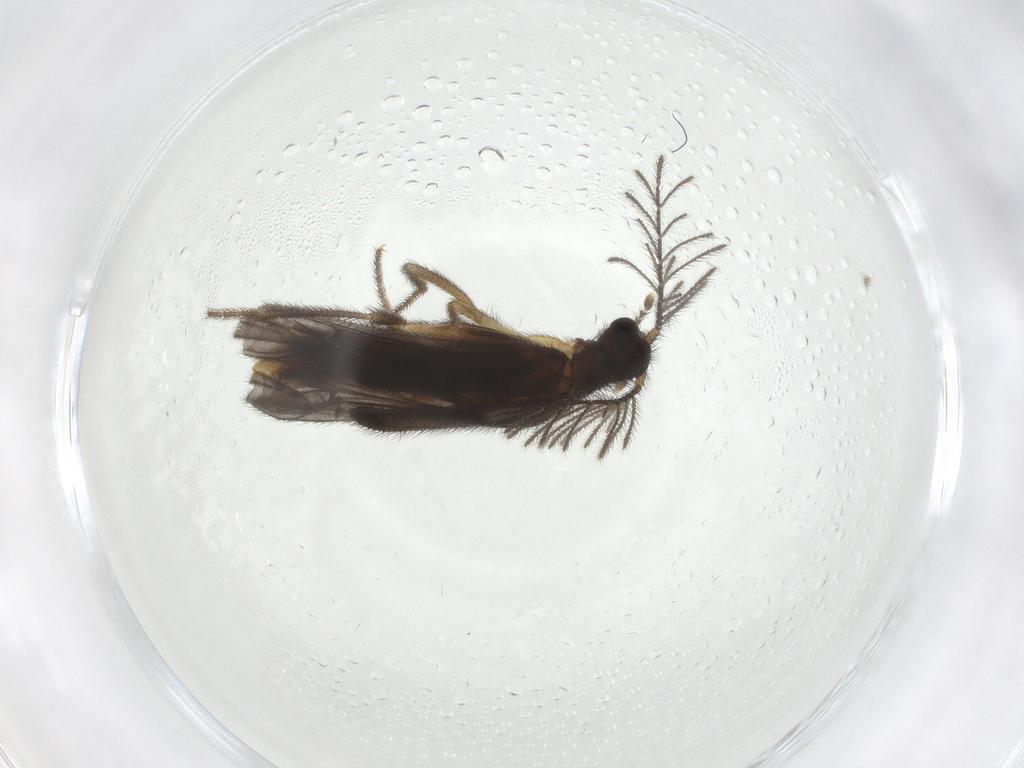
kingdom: Animalia
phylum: Arthropoda
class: Insecta
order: Coleoptera
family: Phengodidae
